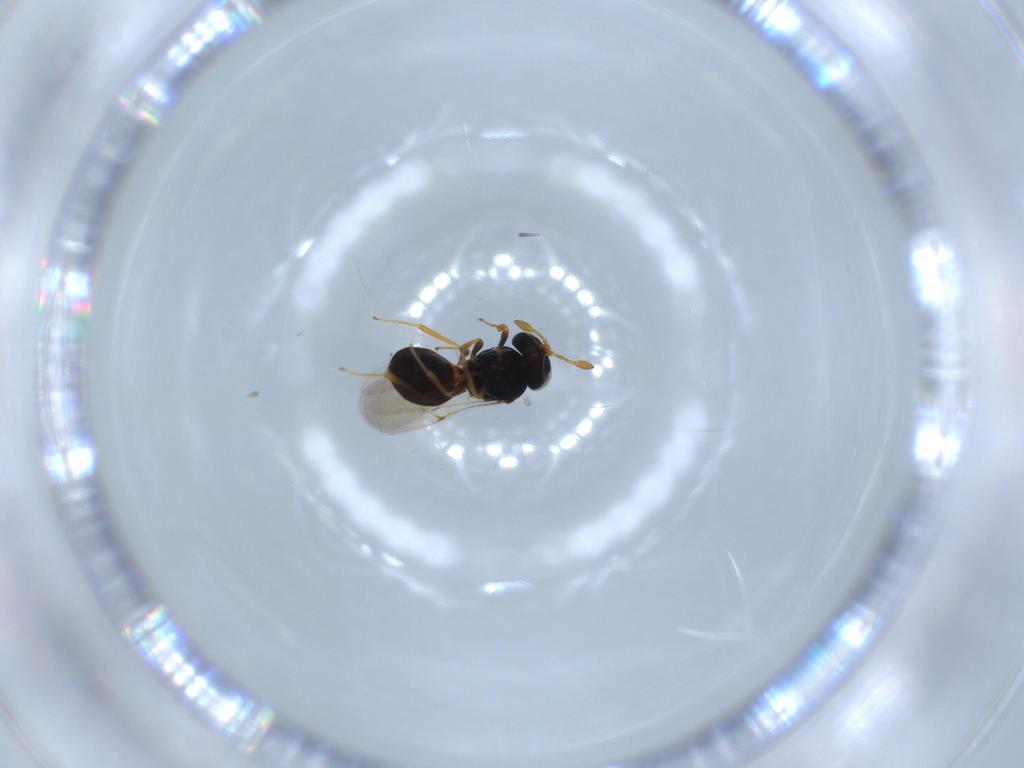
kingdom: Animalia
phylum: Arthropoda
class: Insecta
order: Hymenoptera
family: Scelionidae
